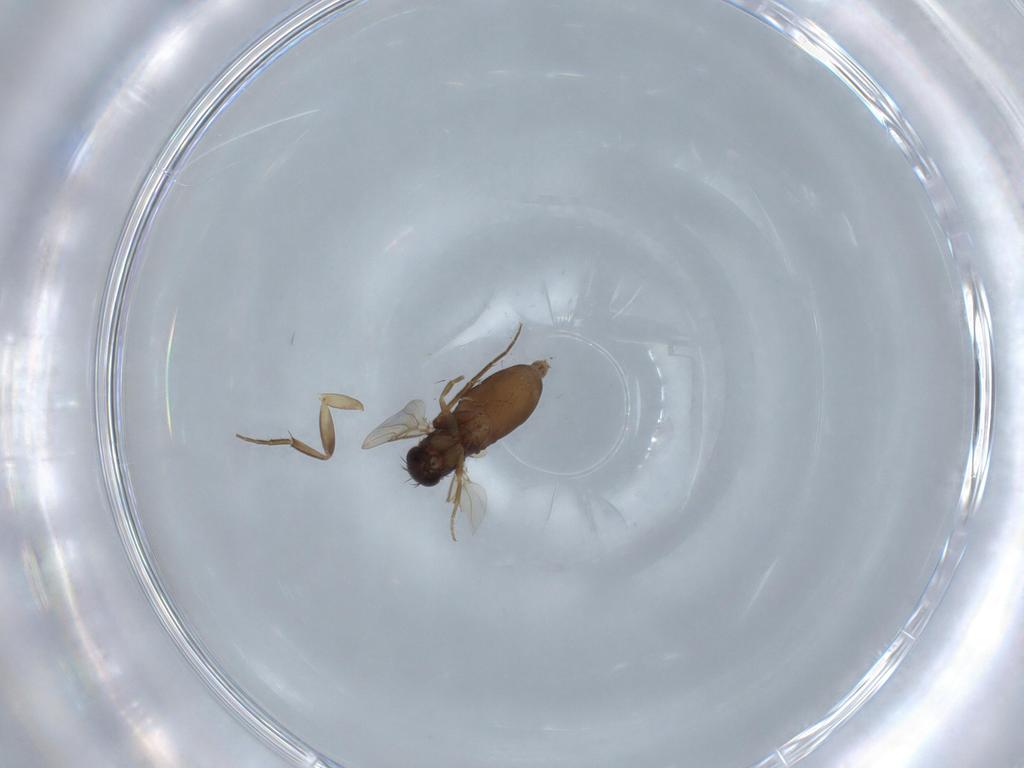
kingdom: Animalia
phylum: Arthropoda
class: Insecta
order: Diptera
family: Phoridae
